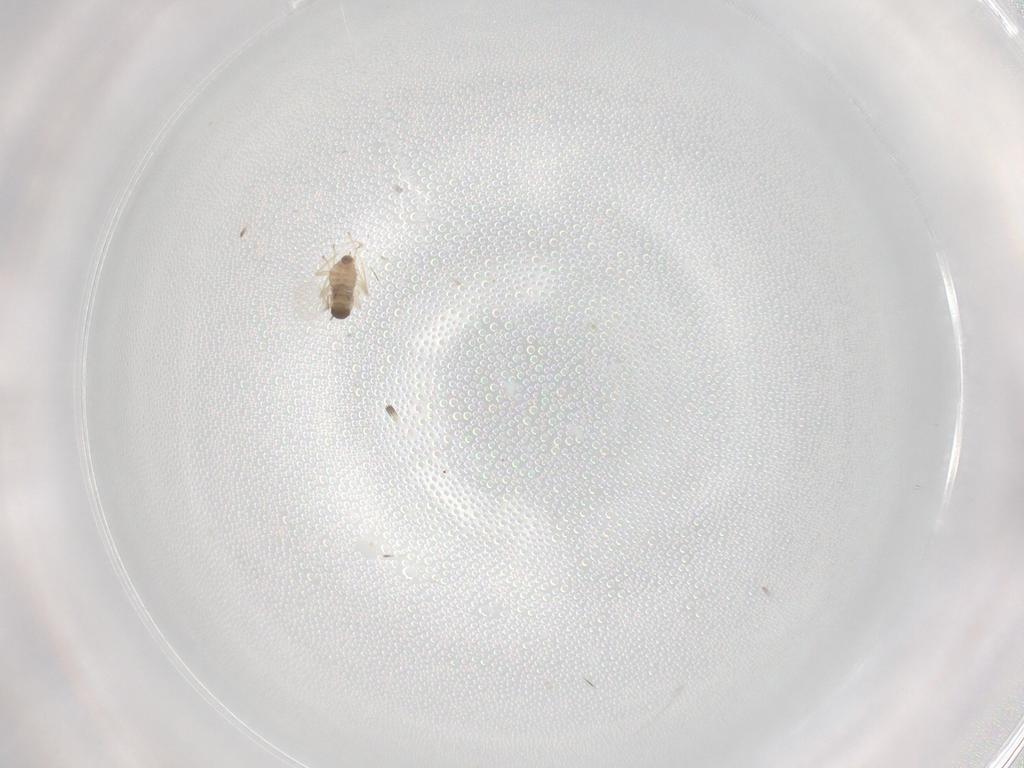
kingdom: Animalia
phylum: Arthropoda
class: Insecta
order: Diptera
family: Cecidomyiidae
